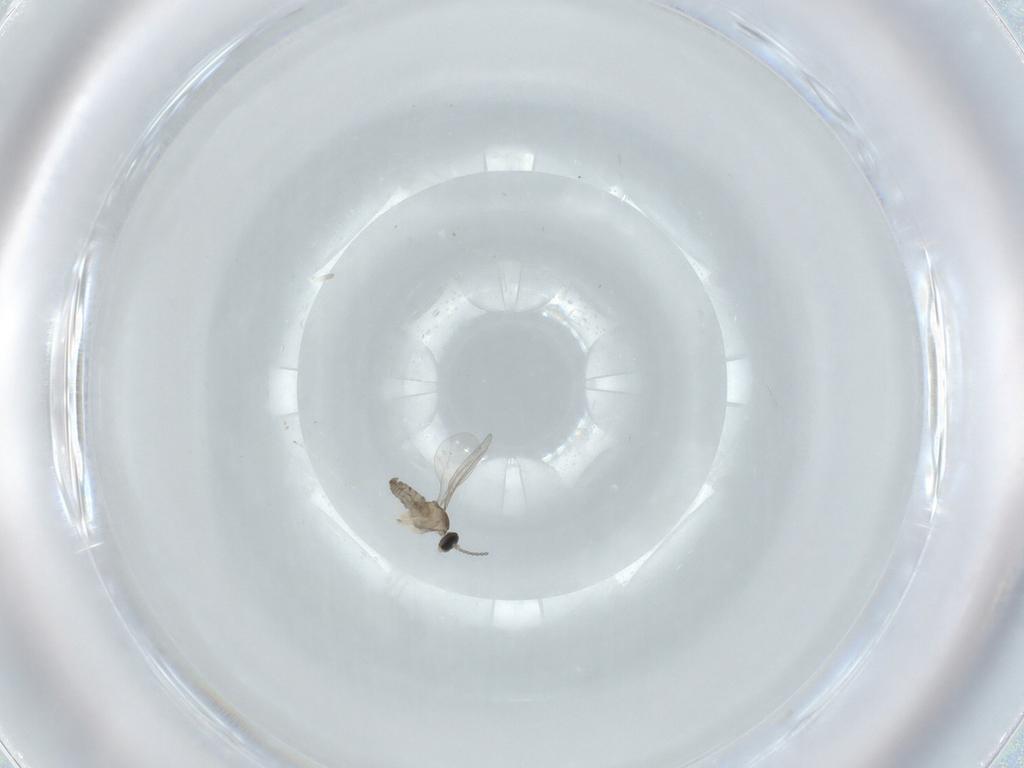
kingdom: Animalia
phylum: Arthropoda
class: Insecta
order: Diptera
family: Cecidomyiidae
